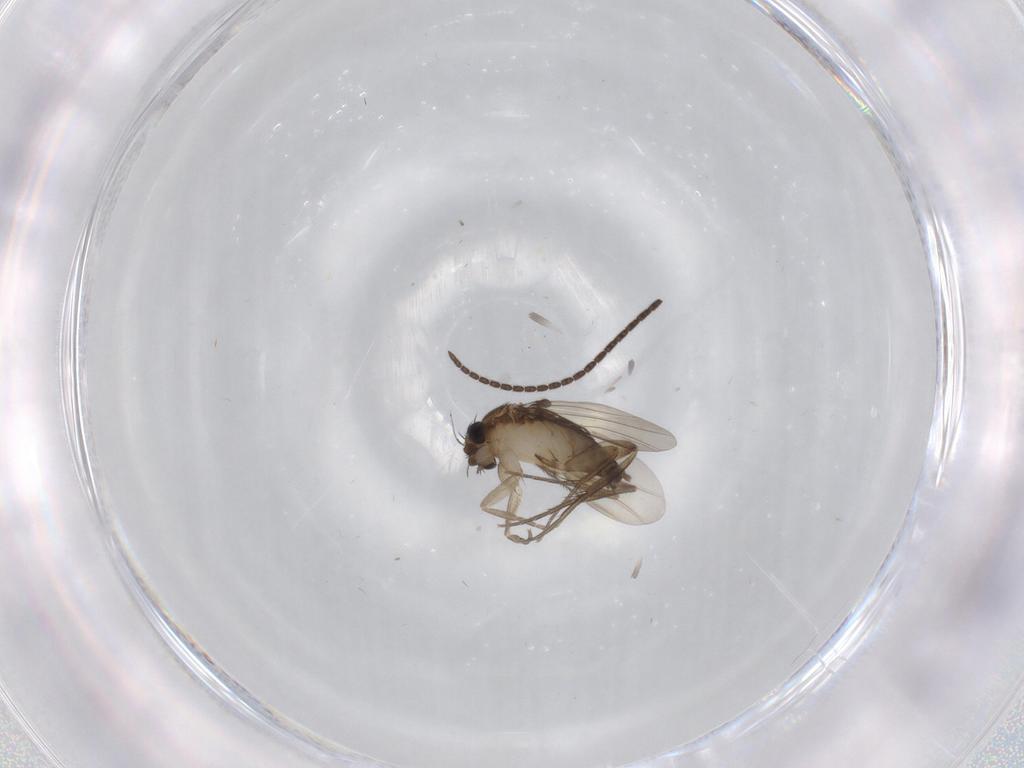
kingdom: Animalia
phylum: Arthropoda
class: Insecta
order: Diptera
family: Phoridae
